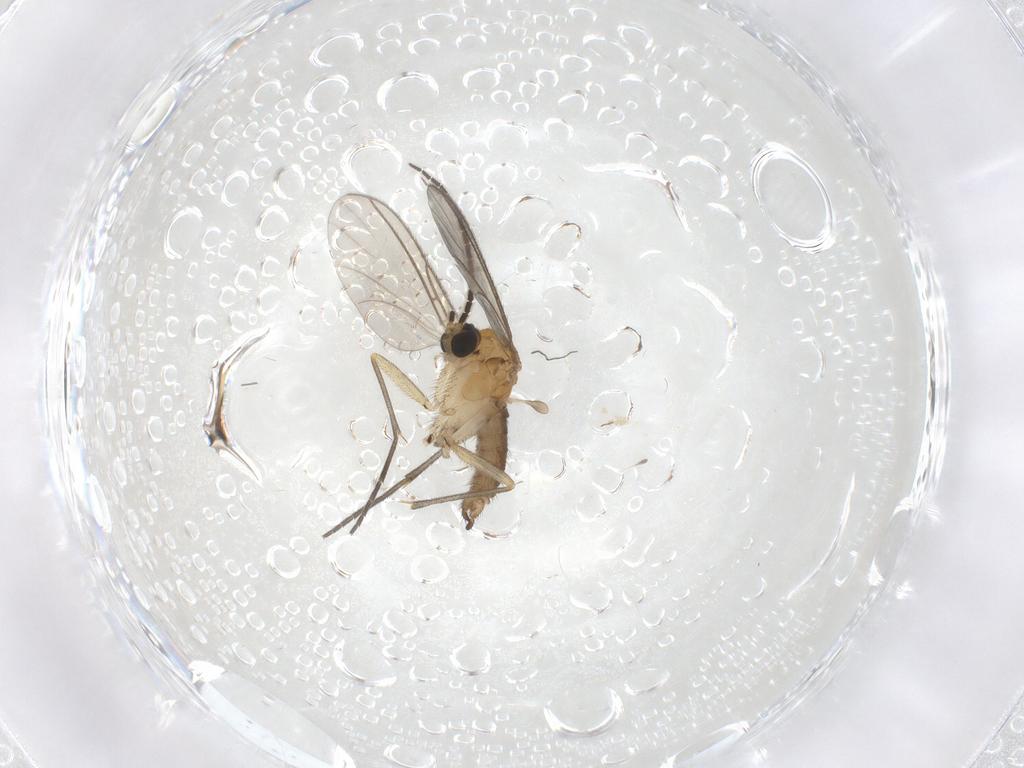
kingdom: Animalia
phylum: Arthropoda
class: Insecta
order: Diptera
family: Sciaridae
